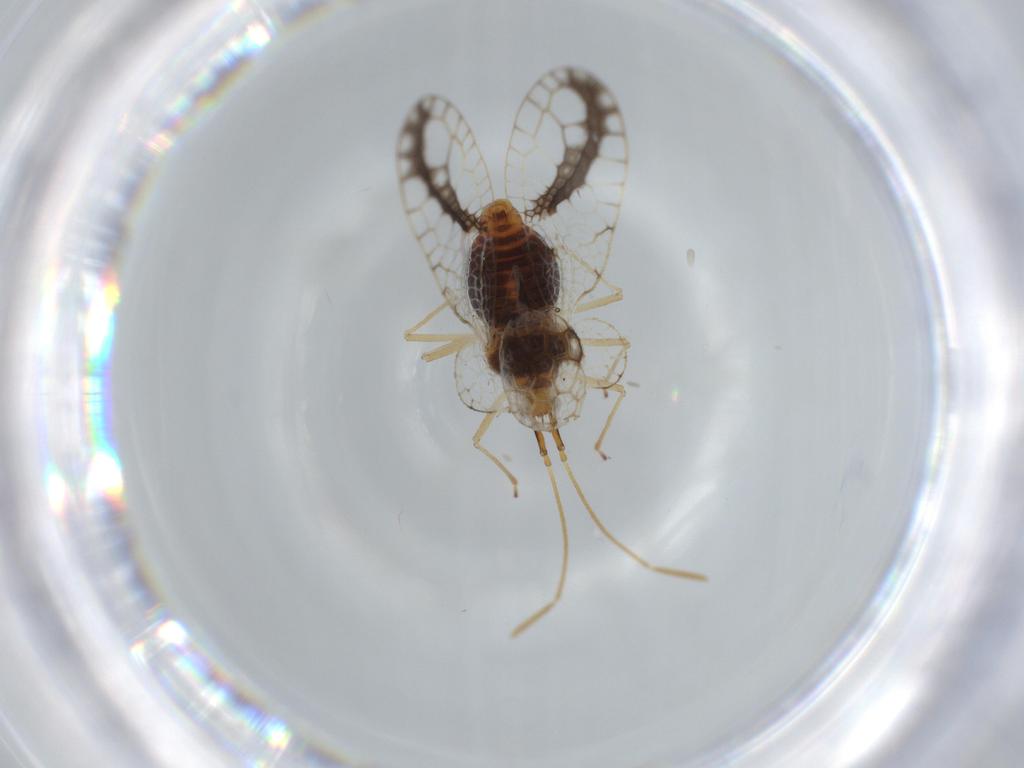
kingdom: Animalia
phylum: Arthropoda
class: Insecta
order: Hemiptera
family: Tingidae
